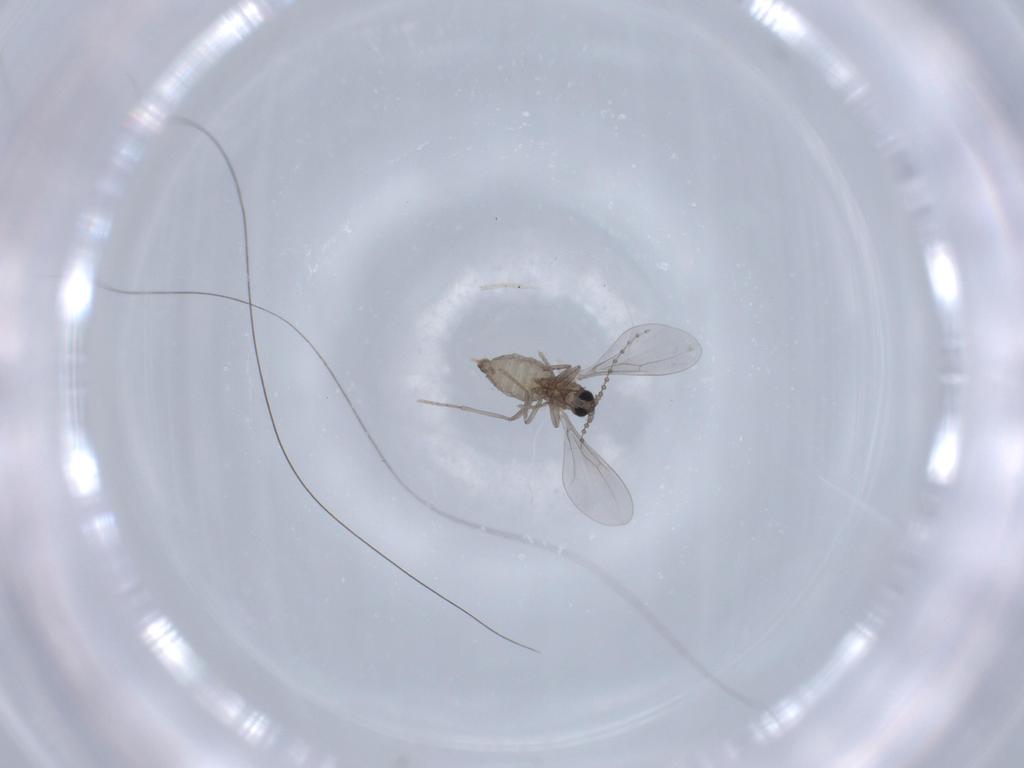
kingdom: Animalia
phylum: Arthropoda
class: Insecta
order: Diptera
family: Cecidomyiidae
